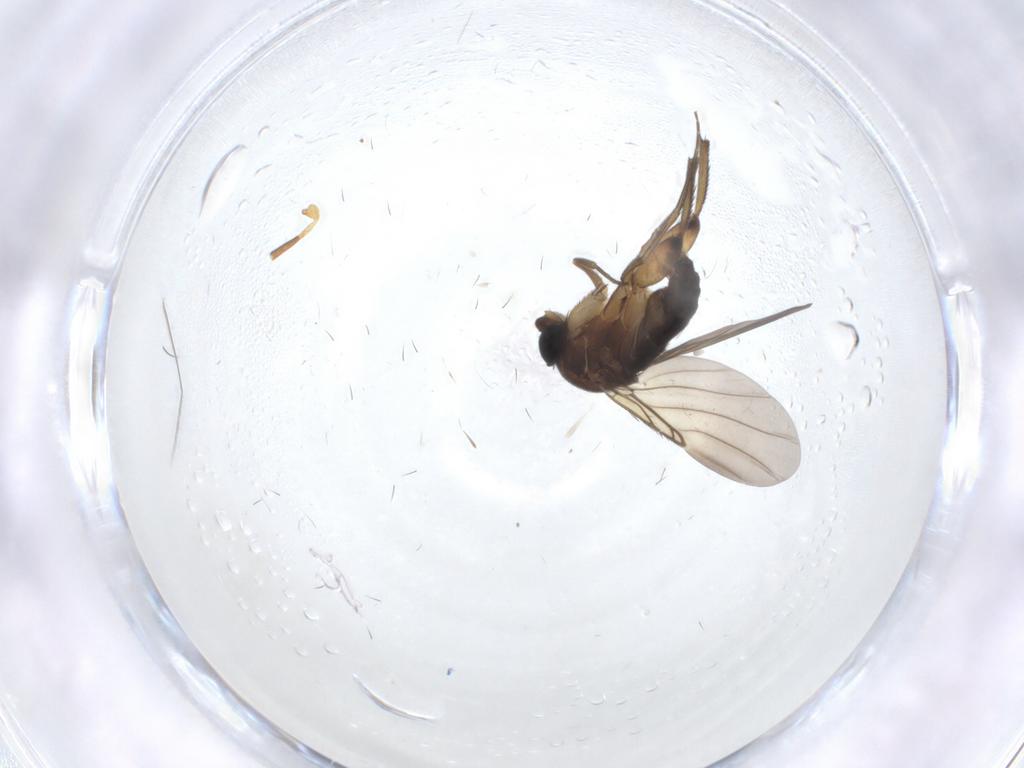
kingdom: Animalia
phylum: Arthropoda
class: Insecta
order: Diptera
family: Phoridae
